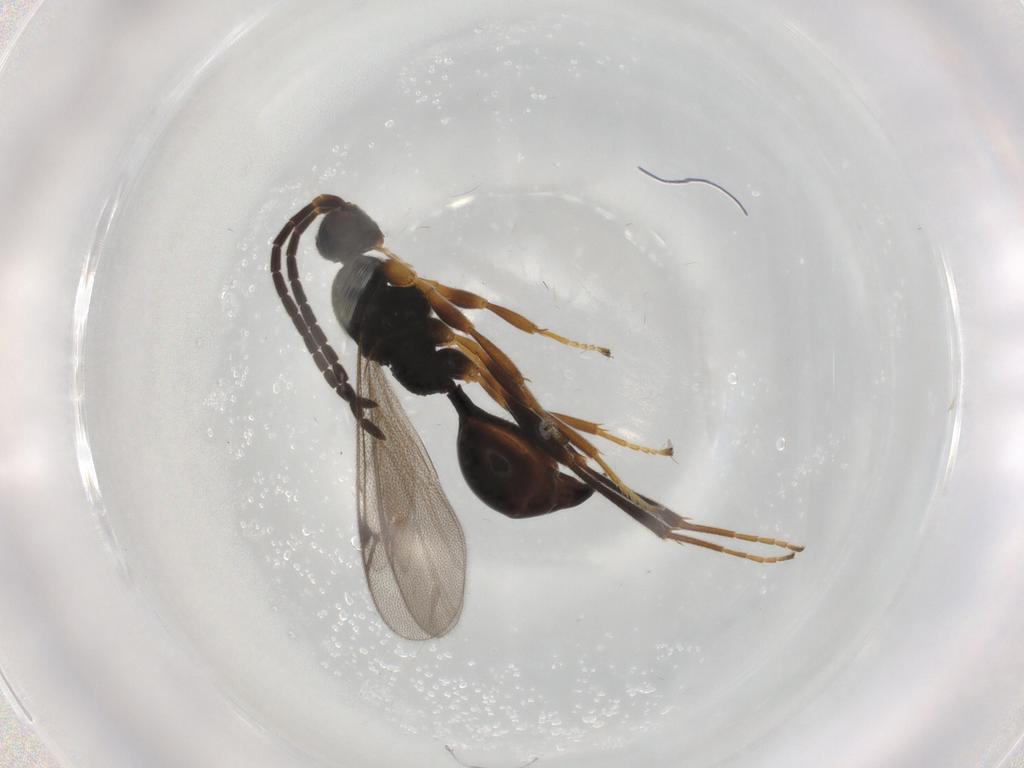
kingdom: Animalia
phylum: Arthropoda
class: Insecta
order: Hymenoptera
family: Proctotrupidae
